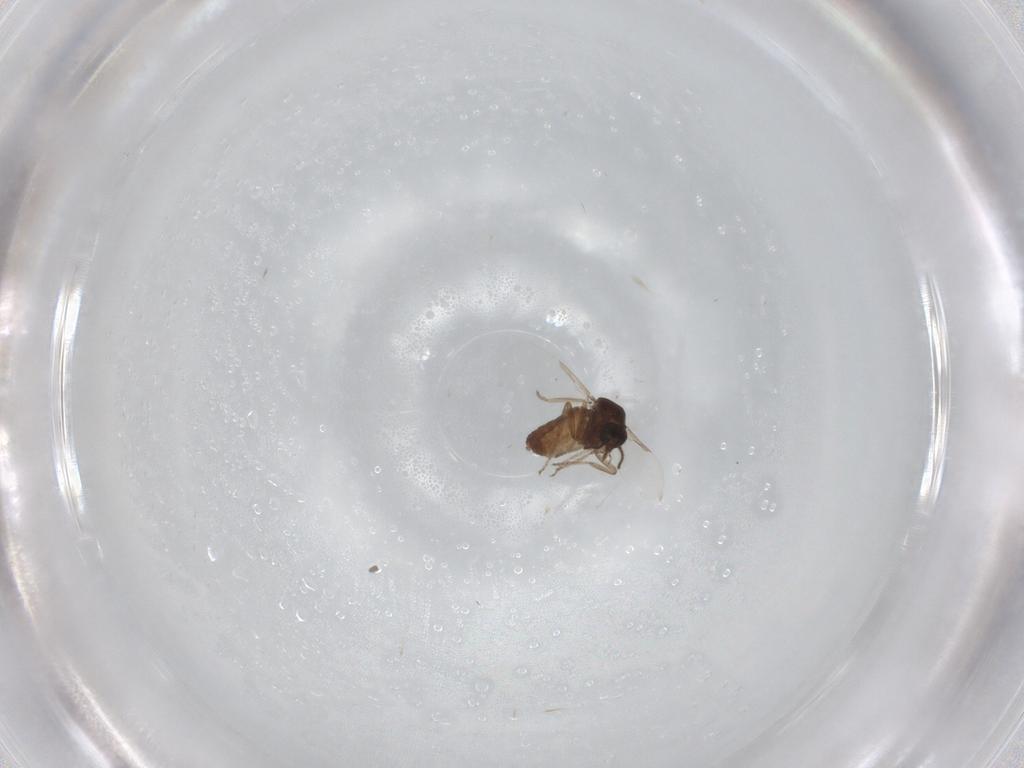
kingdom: Animalia
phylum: Arthropoda
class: Insecta
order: Diptera
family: Ceratopogonidae
